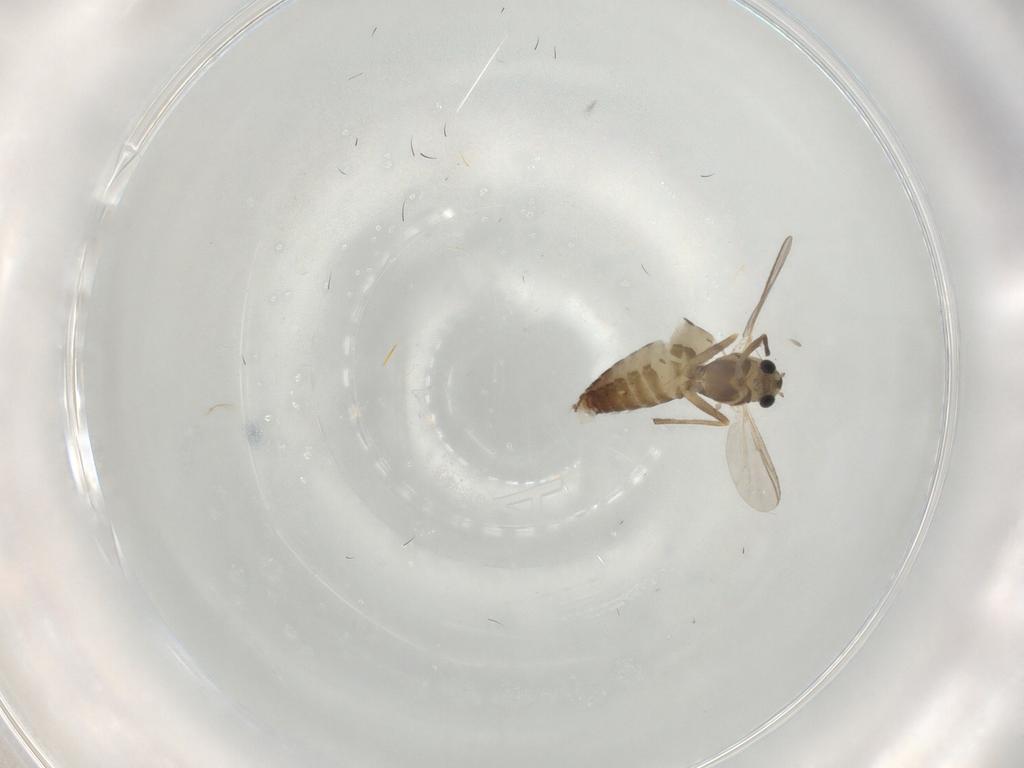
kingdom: Animalia
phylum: Arthropoda
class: Insecta
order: Diptera
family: Chironomidae
